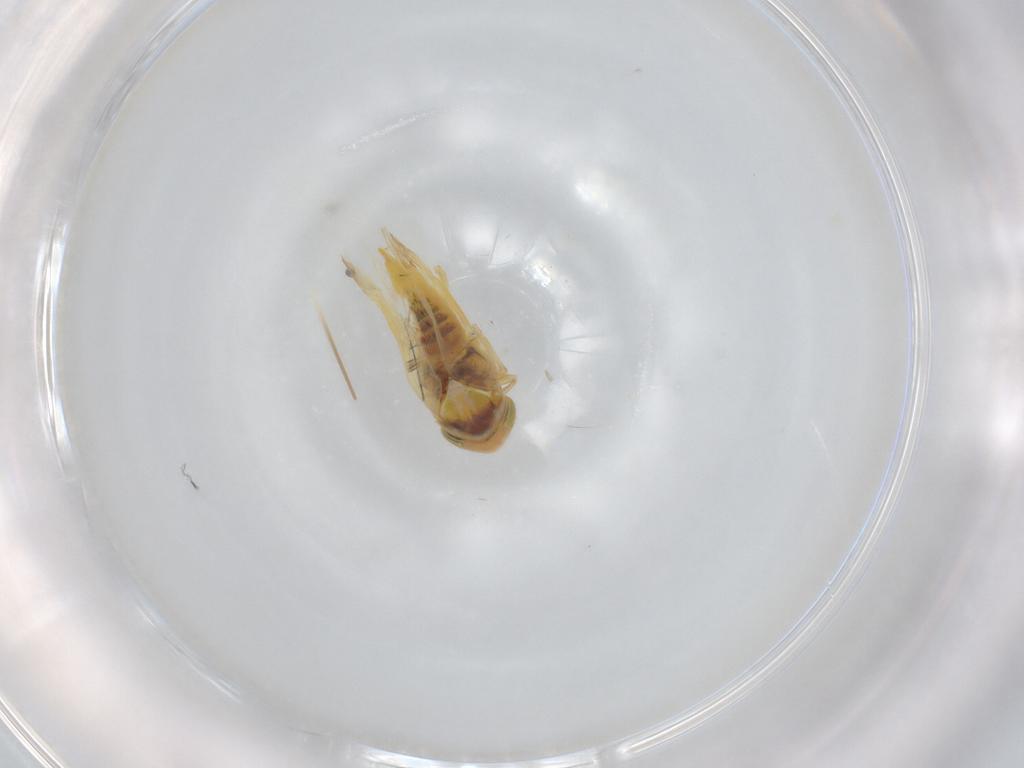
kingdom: Animalia
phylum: Arthropoda
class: Insecta
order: Hemiptera
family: Cicadellidae
